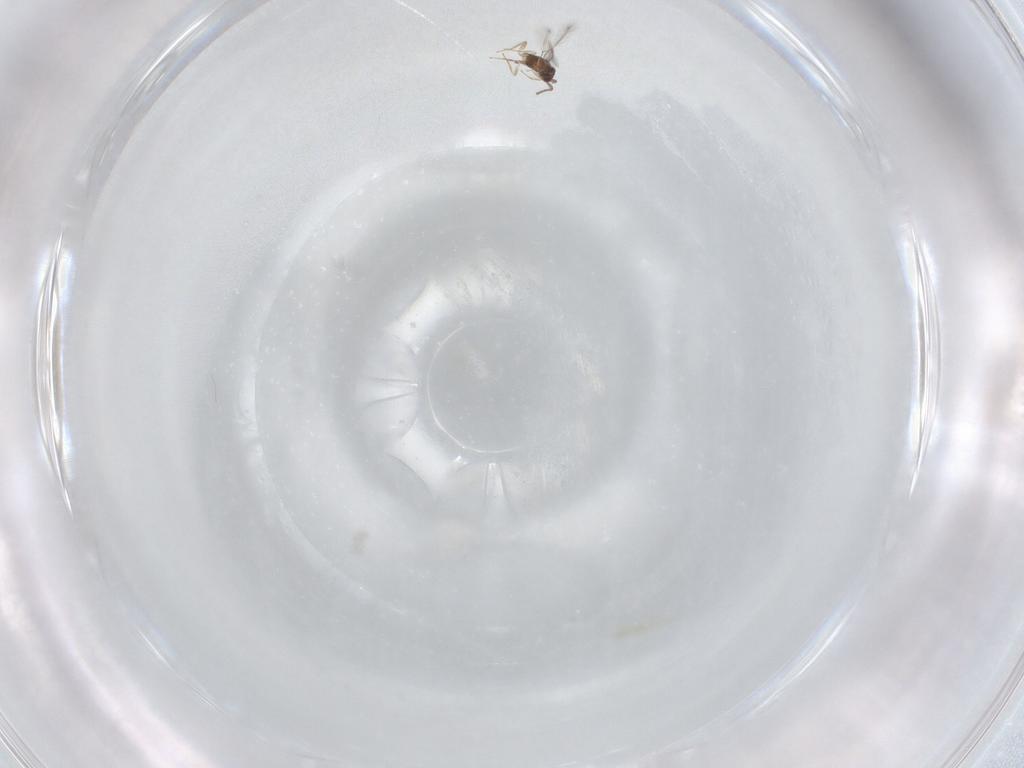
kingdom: Animalia
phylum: Arthropoda
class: Insecta
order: Hymenoptera
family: Mymaridae
